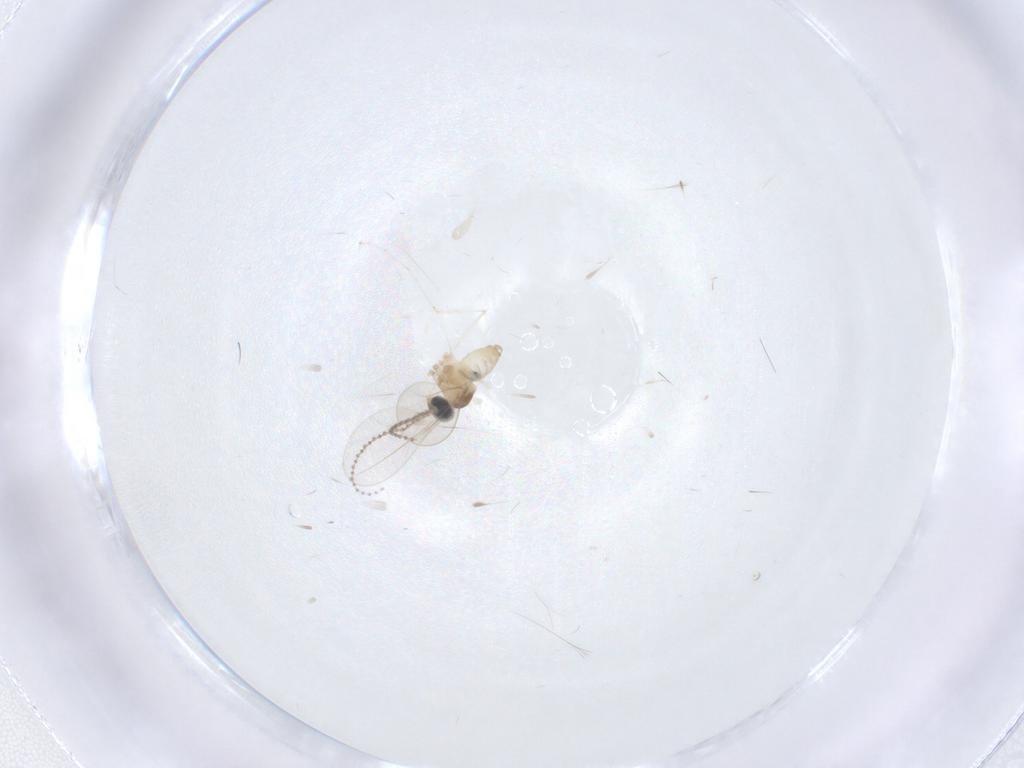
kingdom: Animalia
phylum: Arthropoda
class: Insecta
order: Diptera
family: Cecidomyiidae
